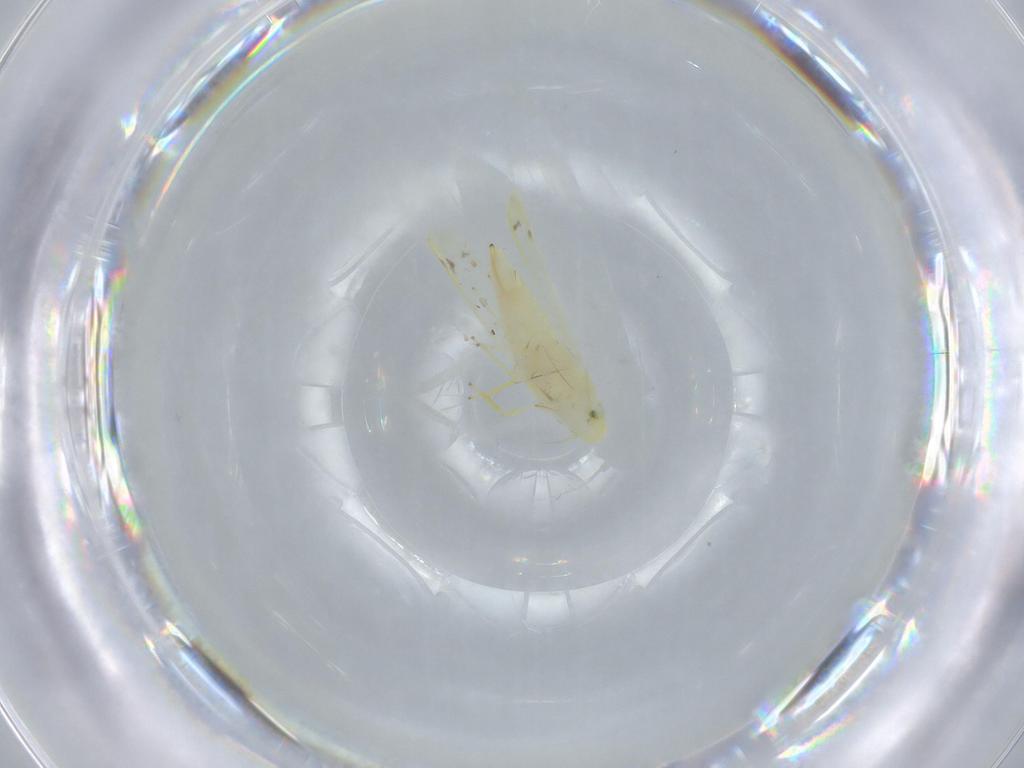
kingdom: Animalia
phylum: Arthropoda
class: Insecta
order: Hemiptera
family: Cicadellidae
